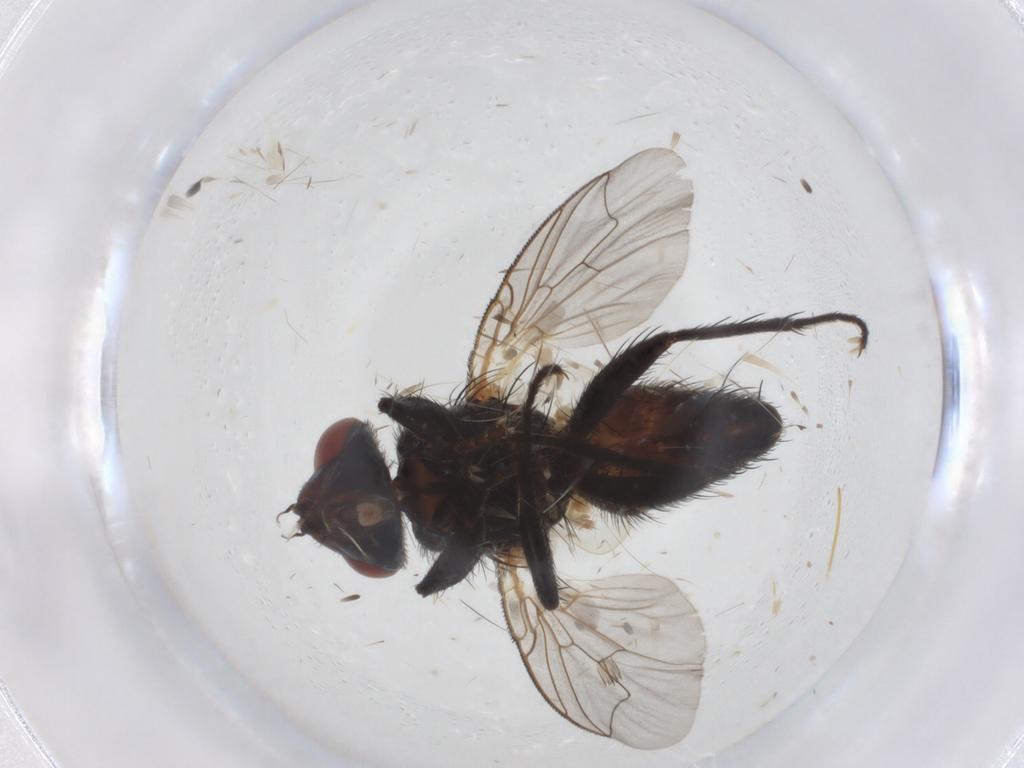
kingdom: Animalia
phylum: Arthropoda
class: Insecta
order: Diptera
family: Sarcophagidae
